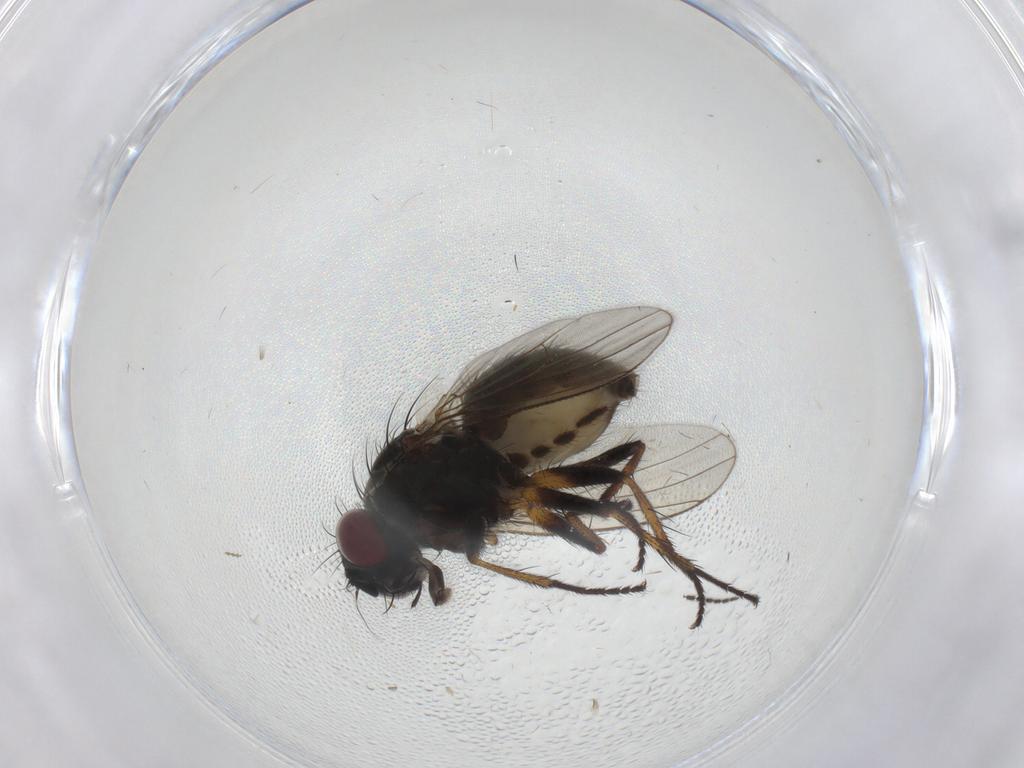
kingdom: Animalia
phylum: Arthropoda
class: Insecta
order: Diptera
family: Muscidae
